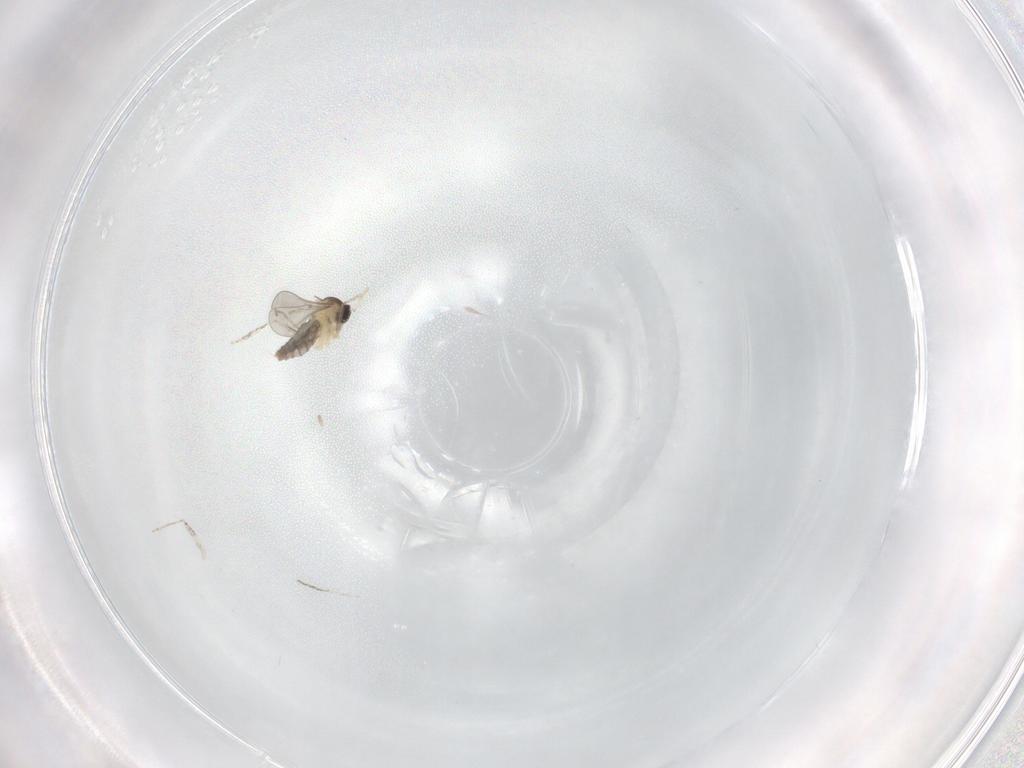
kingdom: Animalia
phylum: Arthropoda
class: Insecta
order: Diptera
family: Cecidomyiidae
